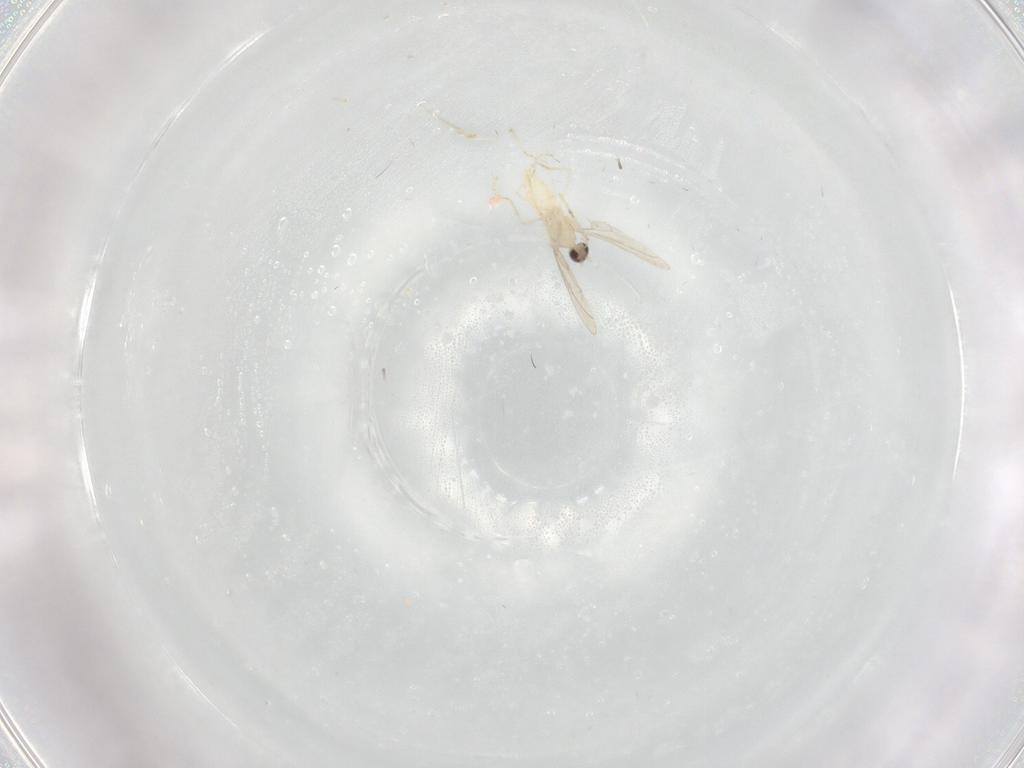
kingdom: Animalia
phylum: Arthropoda
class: Insecta
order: Diptera
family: Cecidomyiidae
